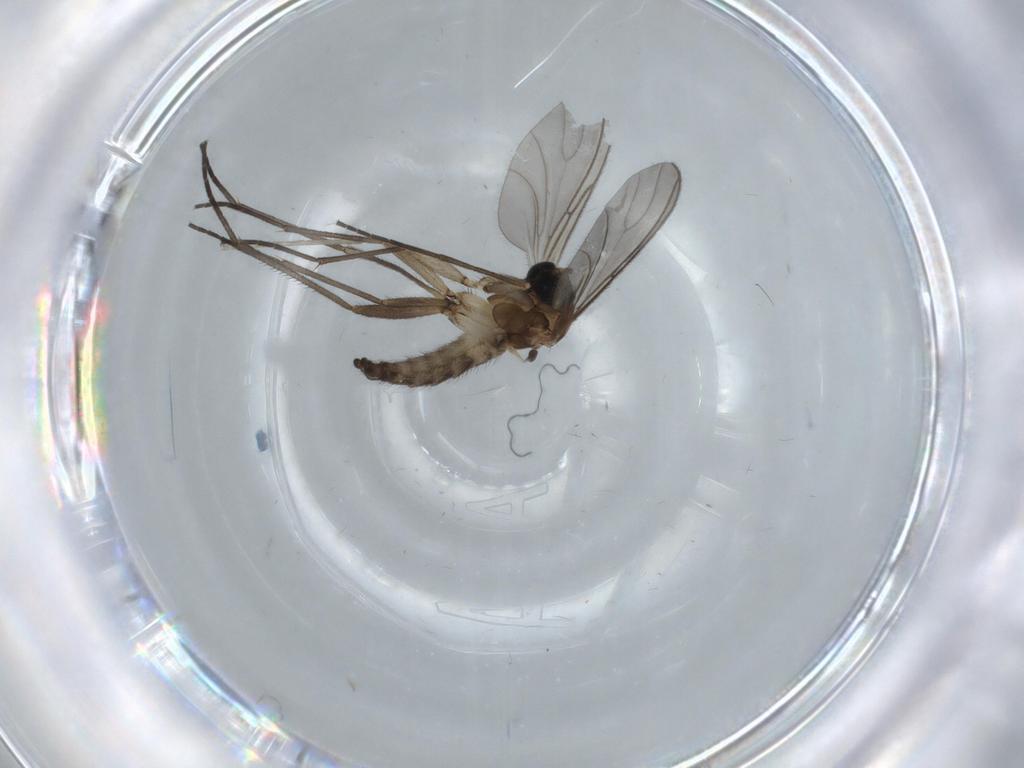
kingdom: Animalia
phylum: Arthropoda
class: Insecta
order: Diptera
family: Sciaridae
